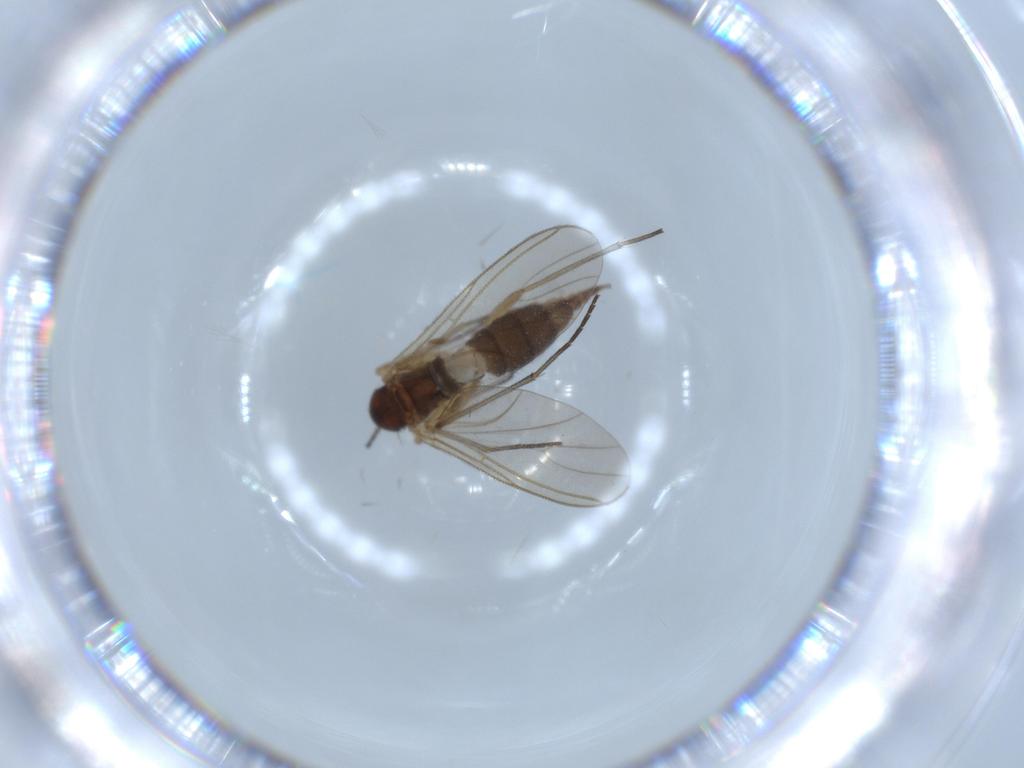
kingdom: Animalia
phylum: Arthropoda
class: Insecta
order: Diptera
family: Sciaridae
